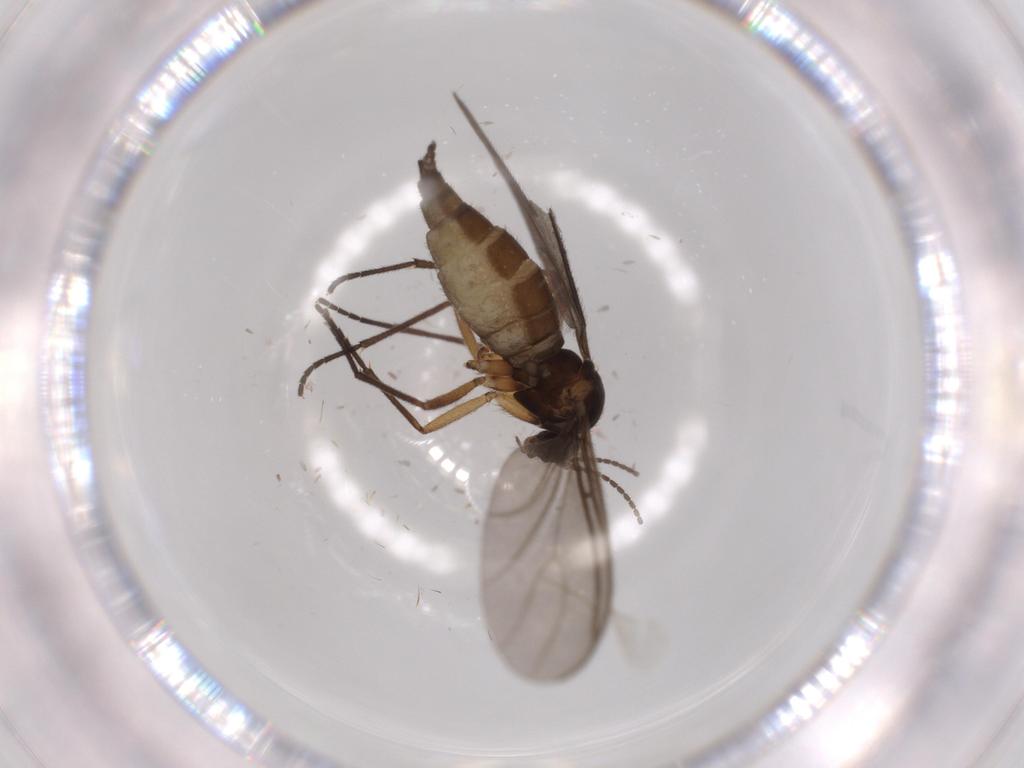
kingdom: Animalia
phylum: Arthropoda
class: Insecta
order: Diptera
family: Sciaridae
